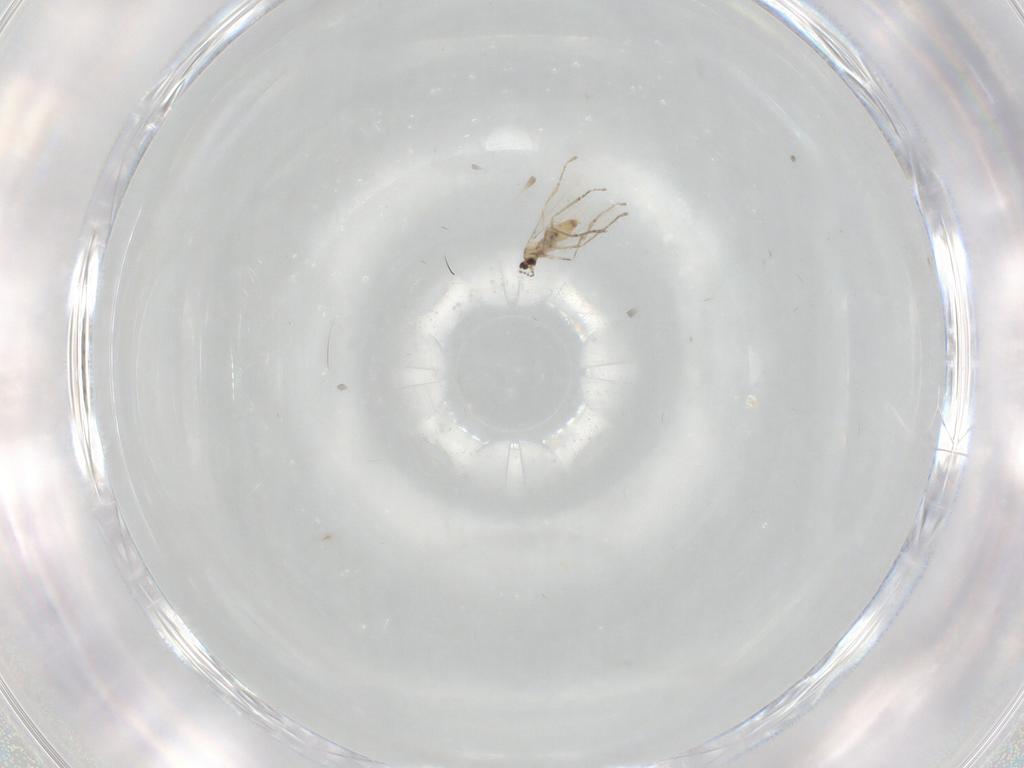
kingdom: Animalia
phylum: Arthropoda
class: Insecta
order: Diptera
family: Cecidomyiidae
